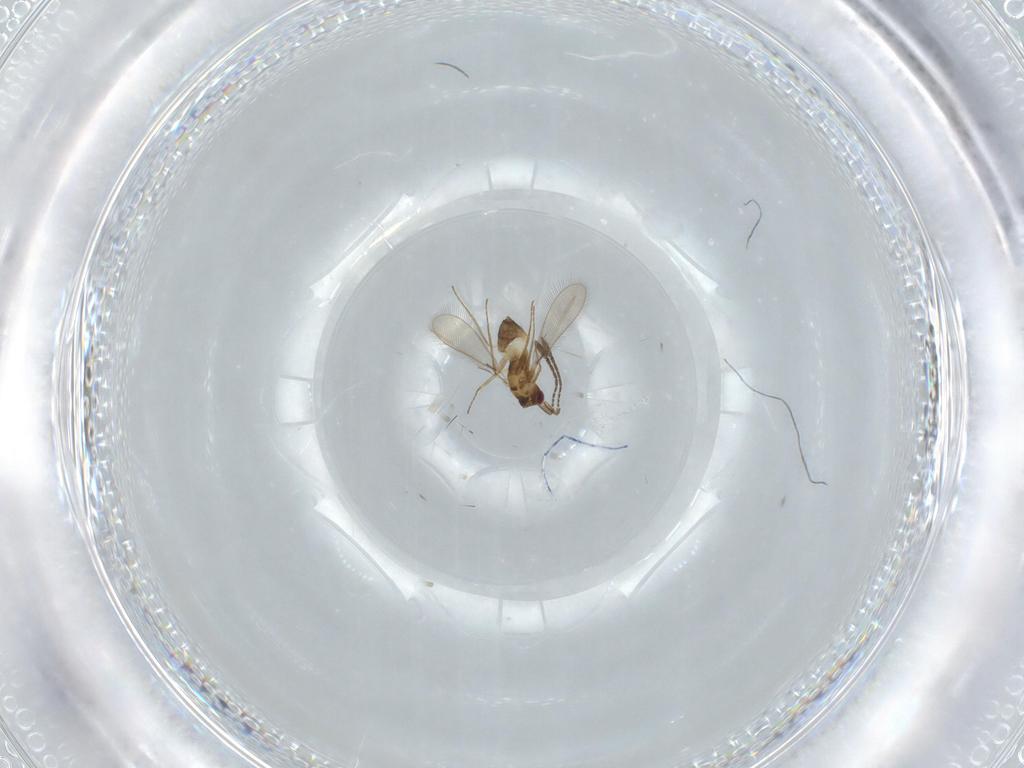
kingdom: Animalia
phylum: Arthropoda
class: Insecta
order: Hymenoptera
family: Mymaridae
